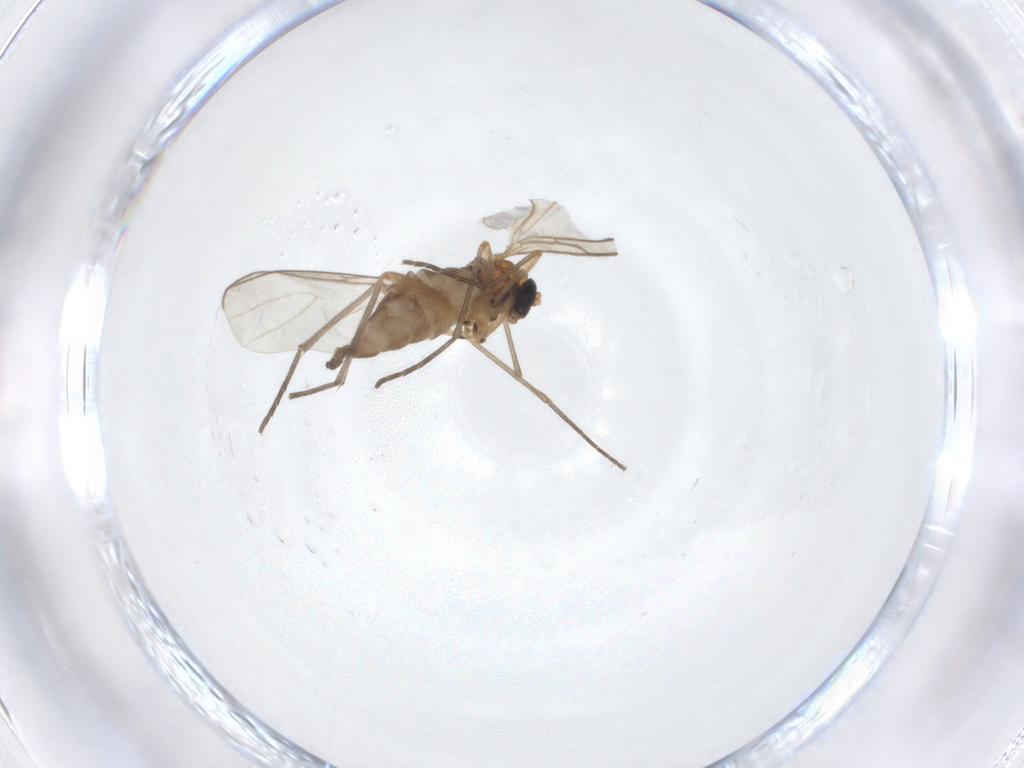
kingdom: Animalia
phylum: Arthropoda
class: Insecta
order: Diptera
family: Sciaridae
